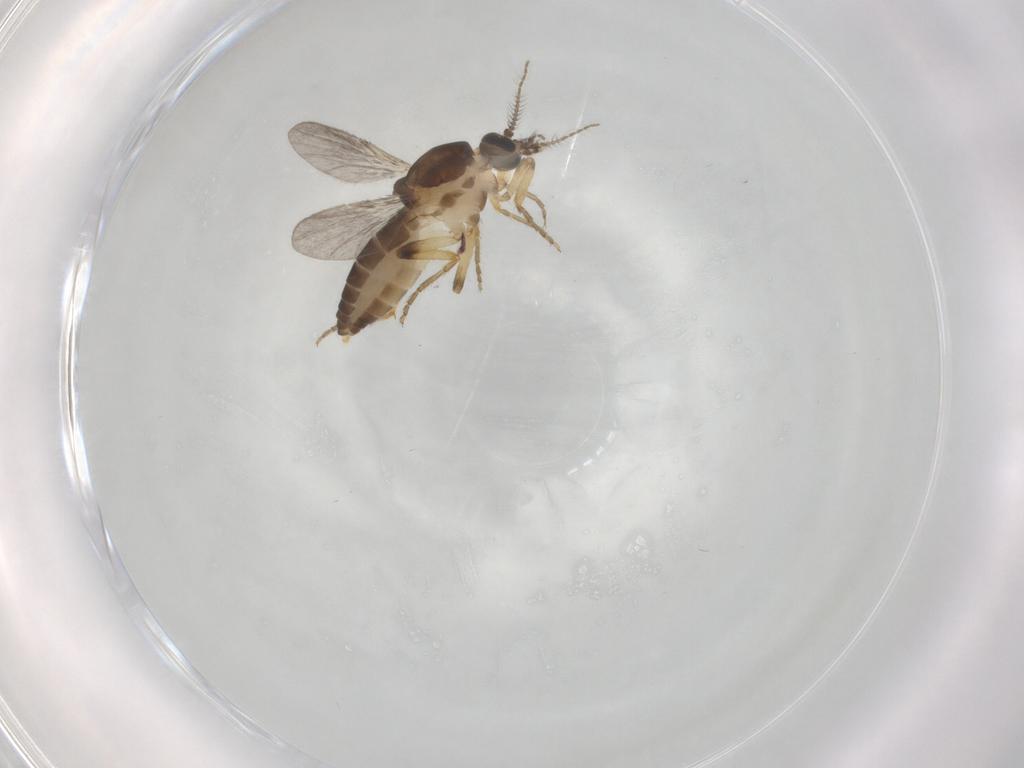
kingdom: Animalia
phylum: Arthropoda
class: Insecta
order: Diptera
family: Ceratopogonidae
